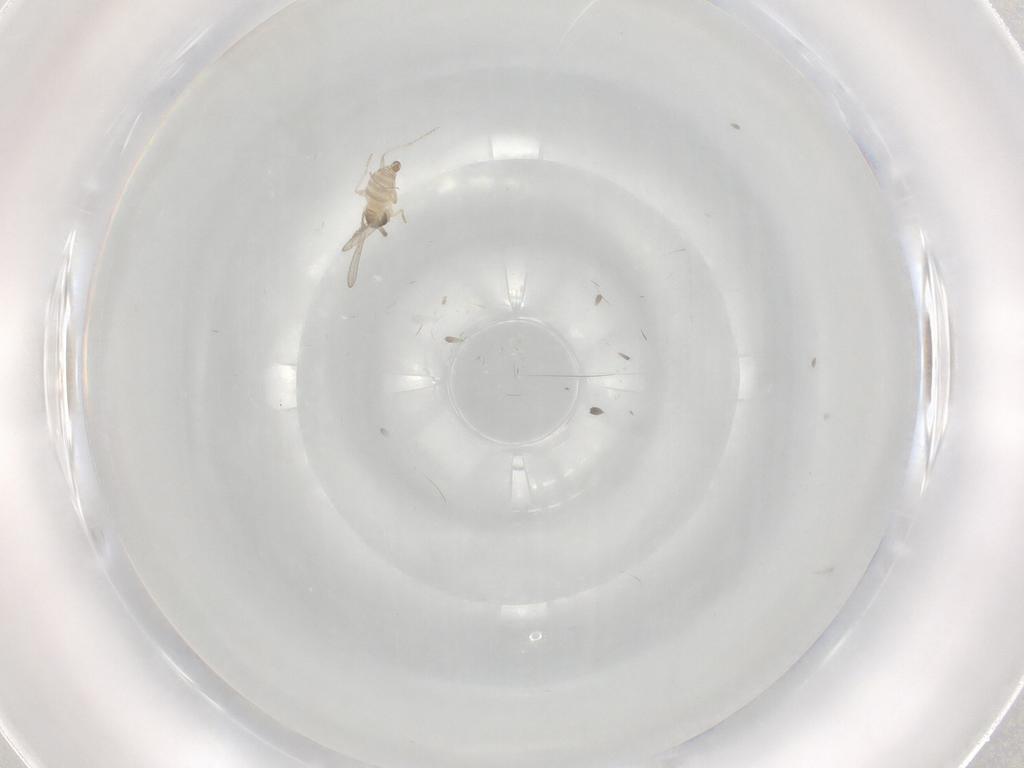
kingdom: Animalia
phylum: Arthropoda
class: Insecta
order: Diptera
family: Cecidomyiidae
